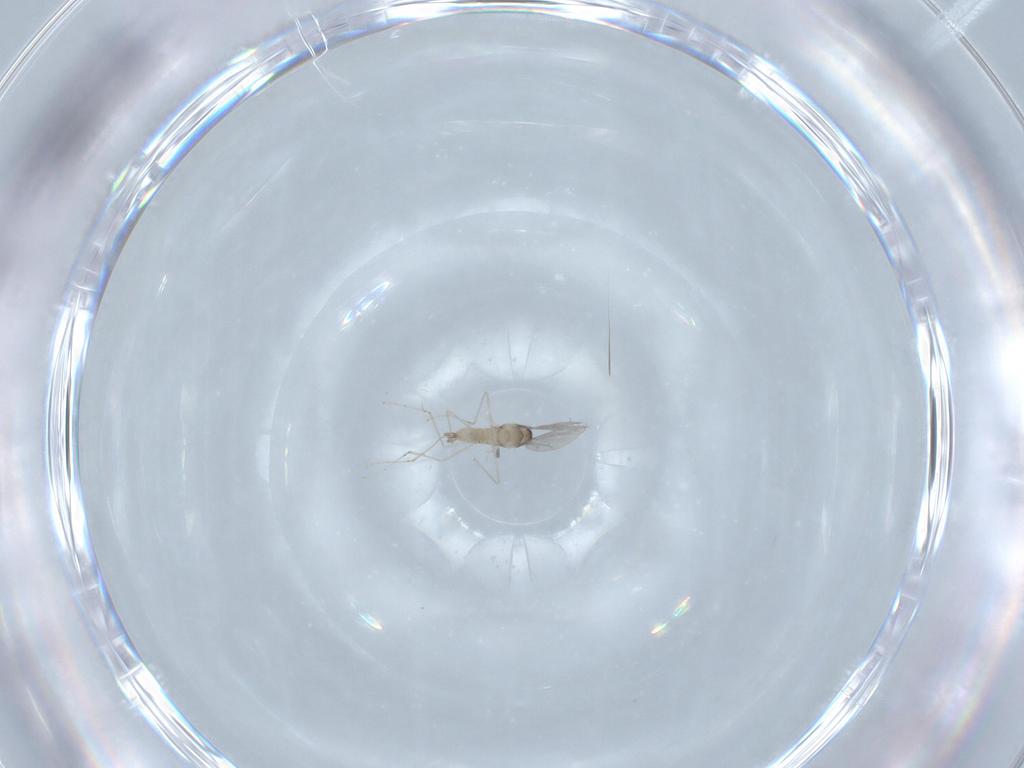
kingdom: Animalia
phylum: Arthropoda
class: Insecta
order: Diptera
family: Cecidomyiidae
